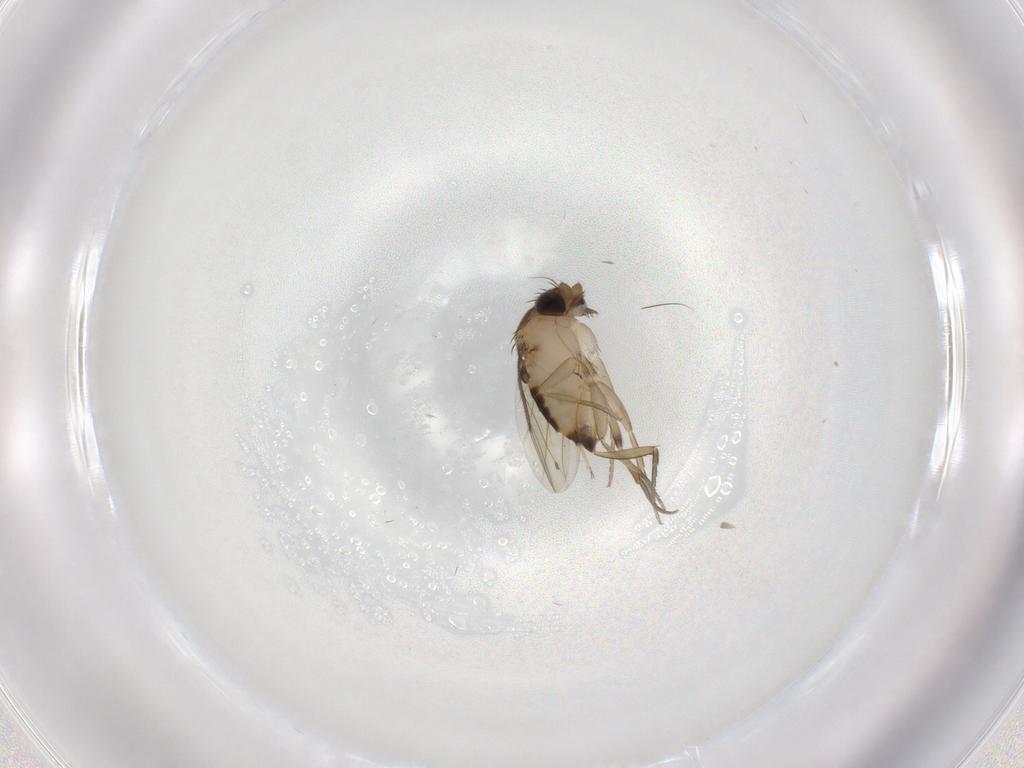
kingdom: Animalia
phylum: Arthropoda
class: Insecta
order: Diptera
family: Phoridae
